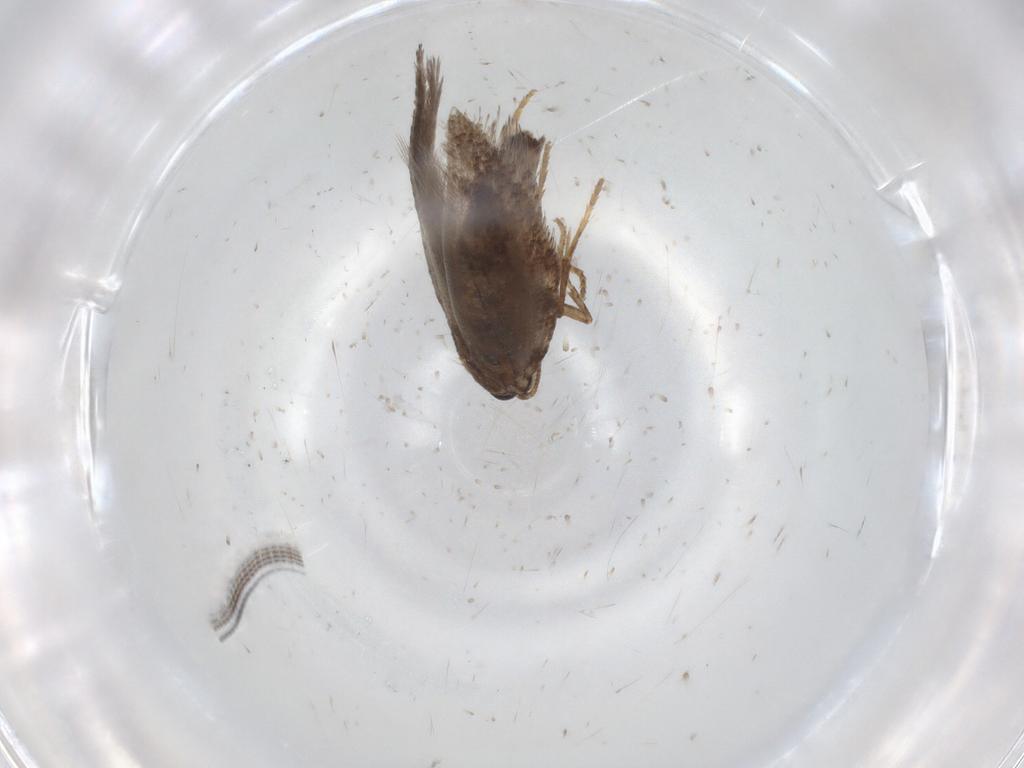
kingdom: Animalia
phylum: Arthropoda
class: Insecta
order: Lepidoptera
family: Nepticulidae
